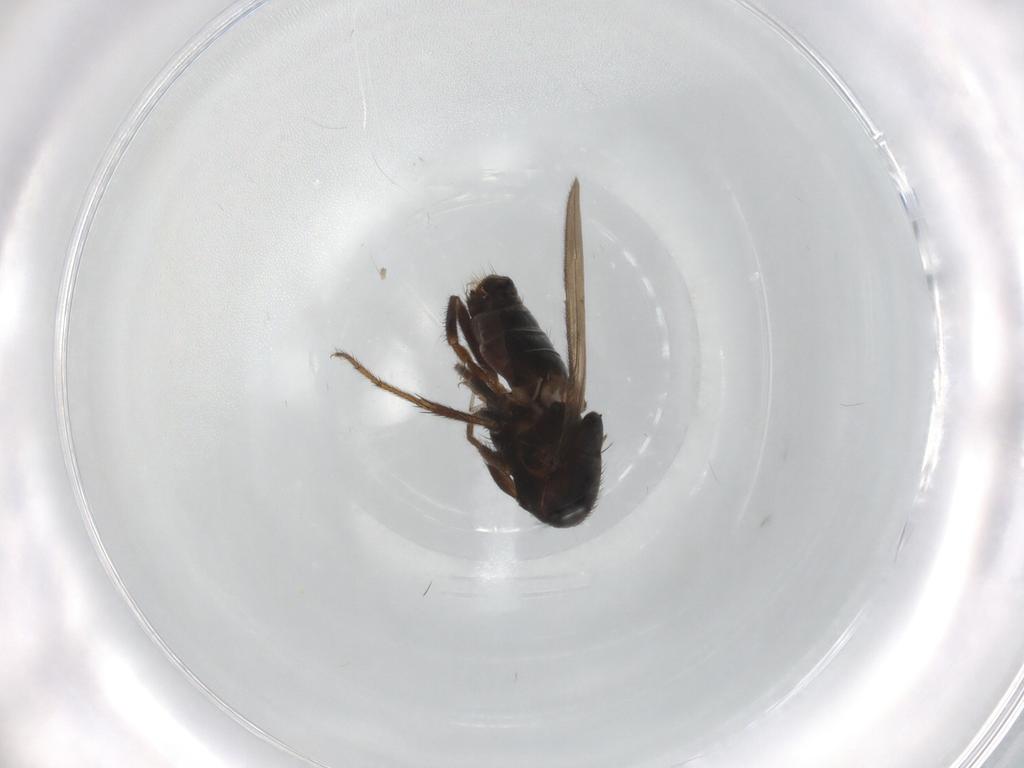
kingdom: Animalia
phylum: Arthropoda
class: Insecta
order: Diptera
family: Sphaeroceridae
